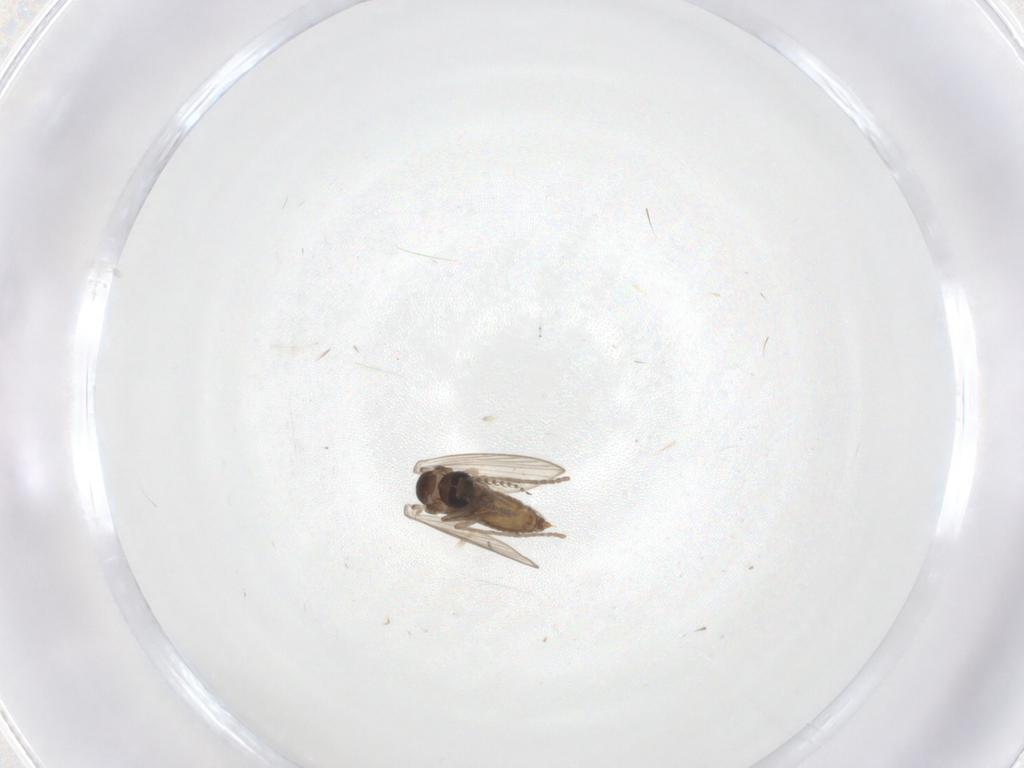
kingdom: Animalia
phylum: Arthropoda
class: Insecta
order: Diptera
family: Psychodidae
